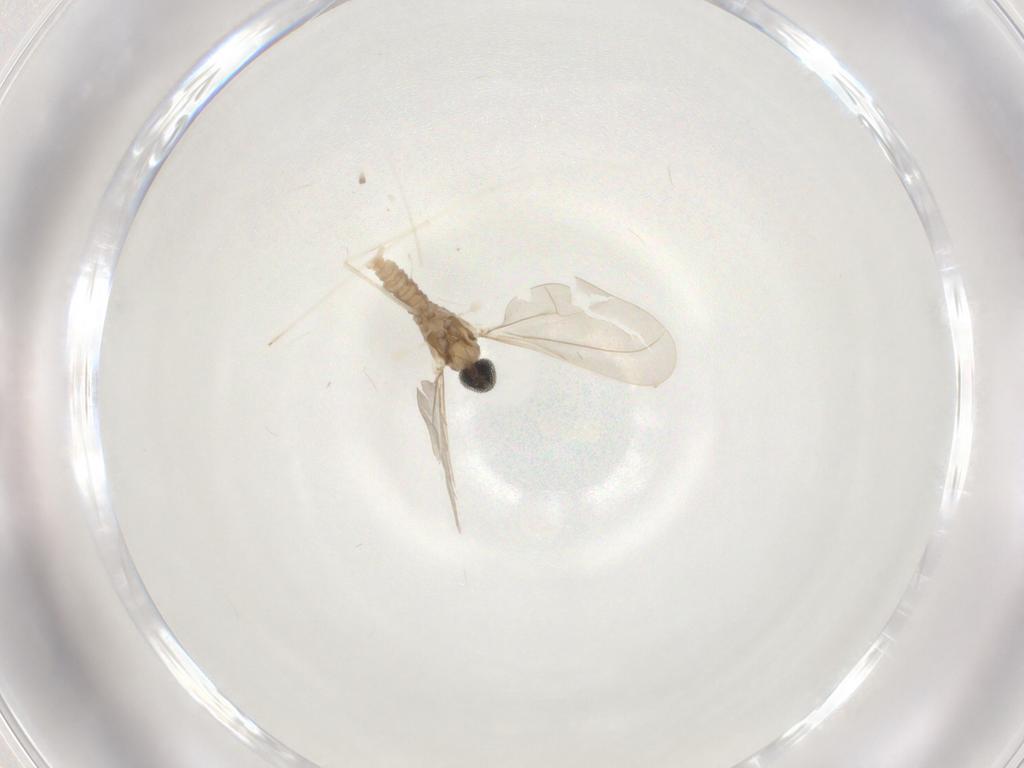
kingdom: Animalia
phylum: Arthropoda
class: Insecta
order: Diptera
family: Cecidomyiidae
